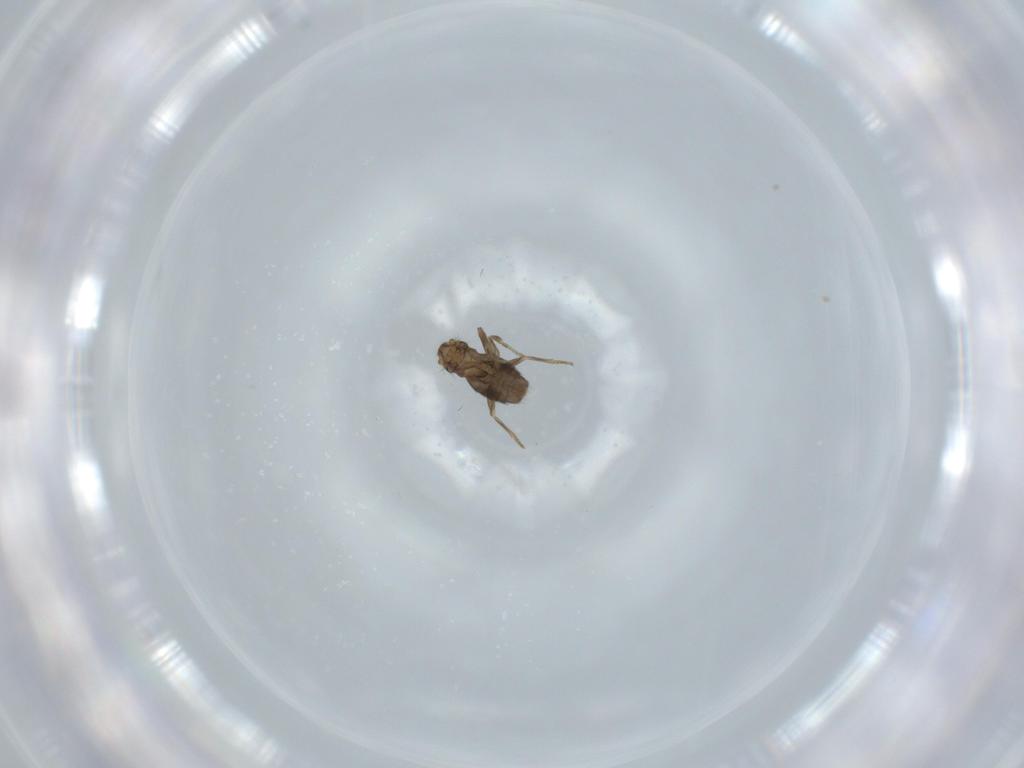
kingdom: Animalia
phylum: Arthropoda
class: Insecta
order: Diptera
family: Phoridae
